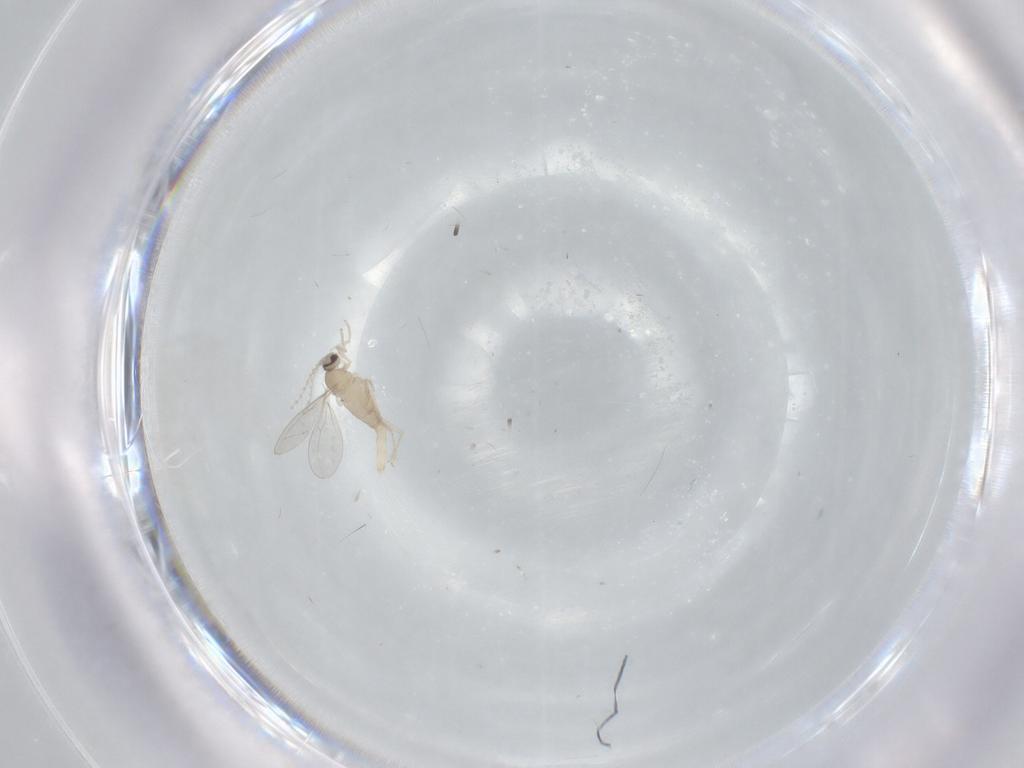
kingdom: Animalia
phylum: Arthropoda
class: Insecta
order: Diptera
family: Cecidomyiidae
